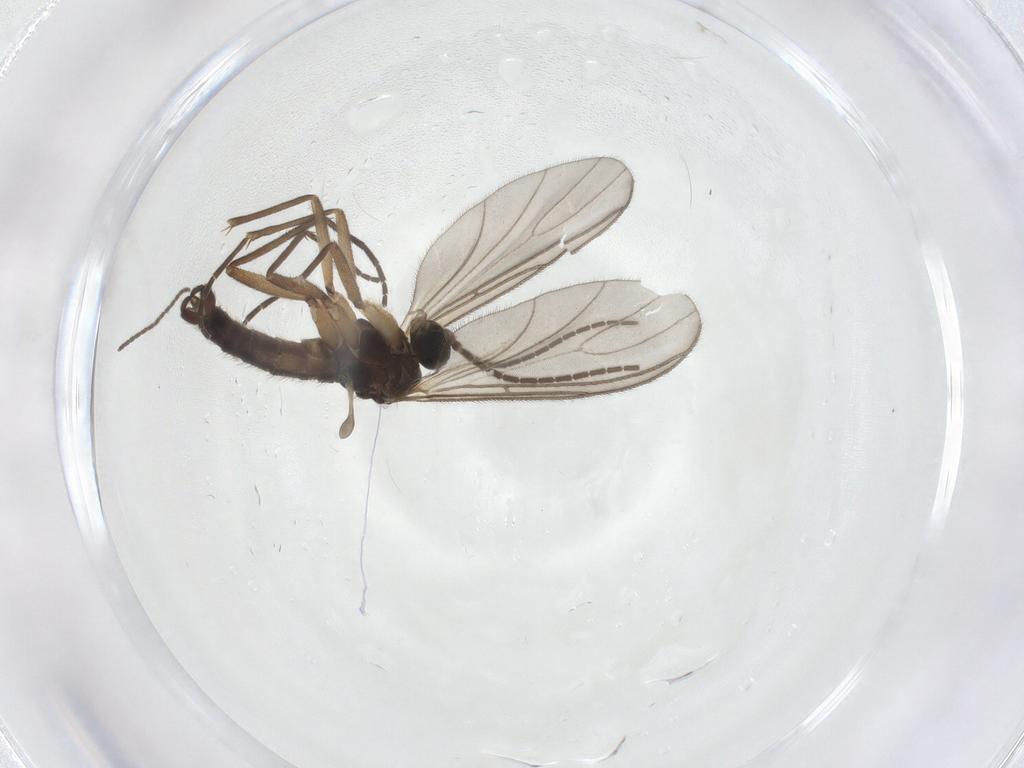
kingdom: Animalia
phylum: Arthropoda
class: Insecta
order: Diptera
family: Sciaridae
